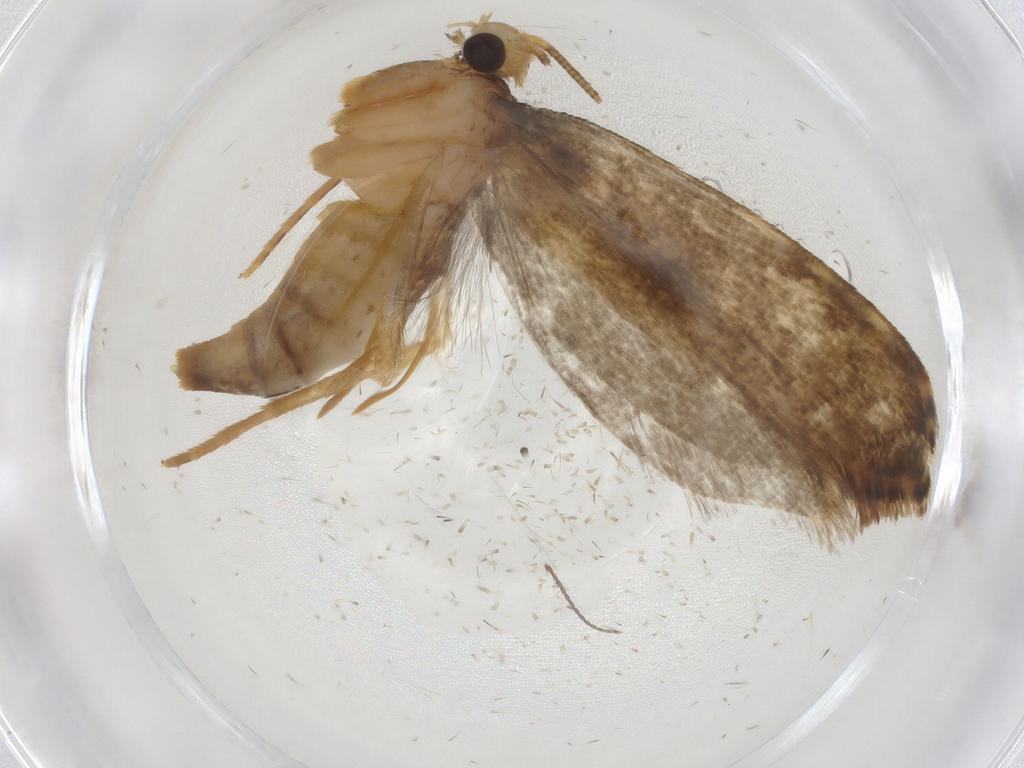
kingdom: Animalia
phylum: Arthropoda
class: Insecta
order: Lepidoptera
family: Tineidae
